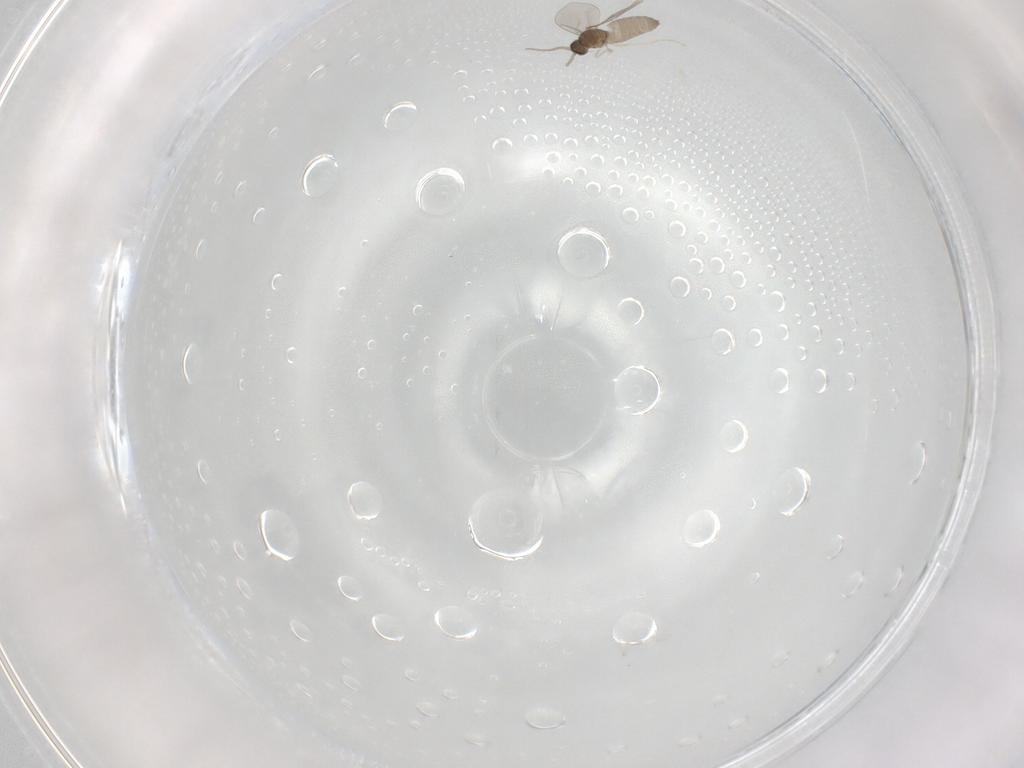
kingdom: Animalia
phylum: Arthropoda
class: Insecta
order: Diptera
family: Cecidomyiidae
